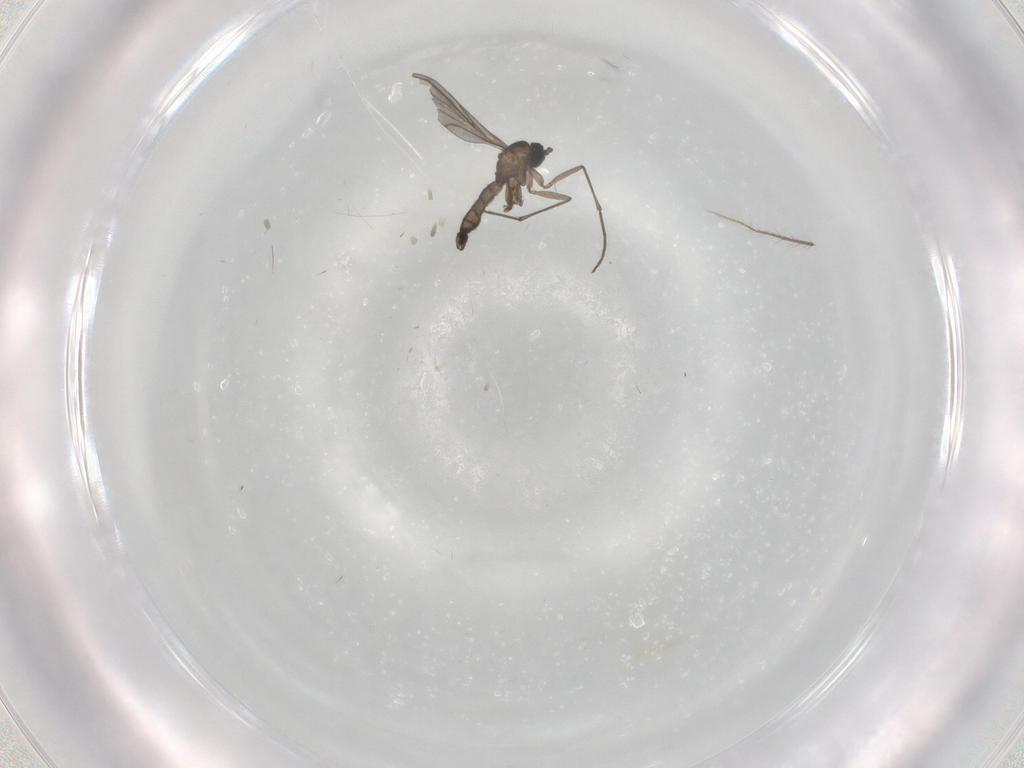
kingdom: Animalia
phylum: Arthropoda
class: Insecta
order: Diptera
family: Sciaridae
